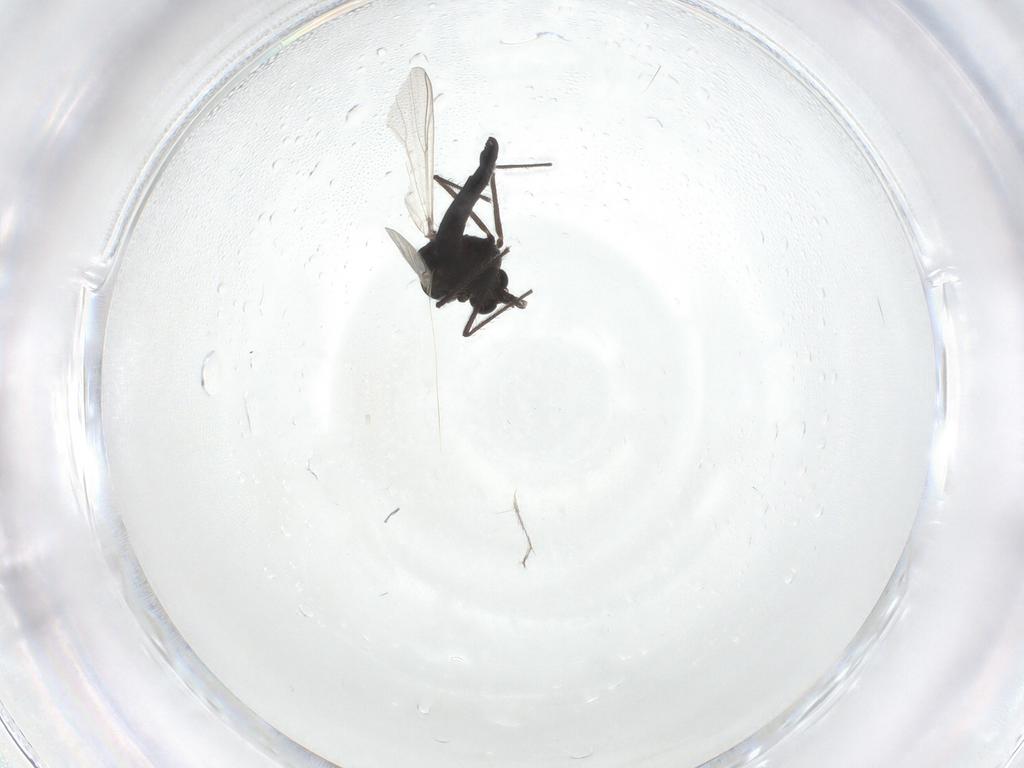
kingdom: Animalia
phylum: Arthropoda
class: Insecta
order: Diptera
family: Chironomidae
